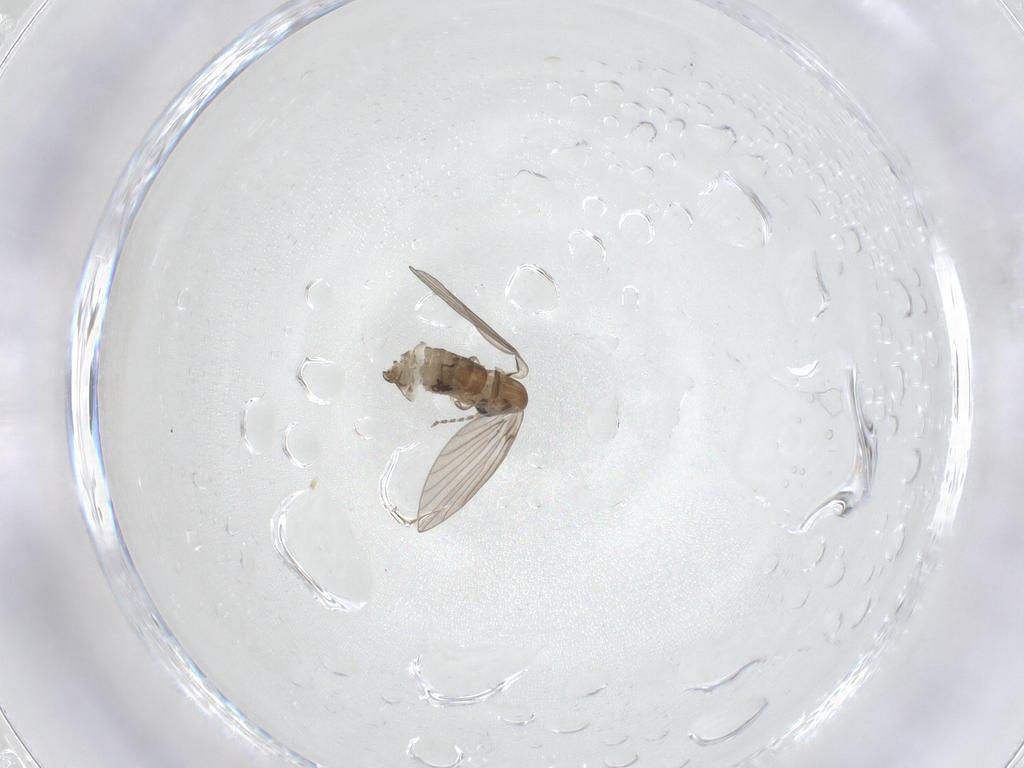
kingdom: Animalia
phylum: Arthropoda
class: Insecta
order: Diptera
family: Psychodidae
